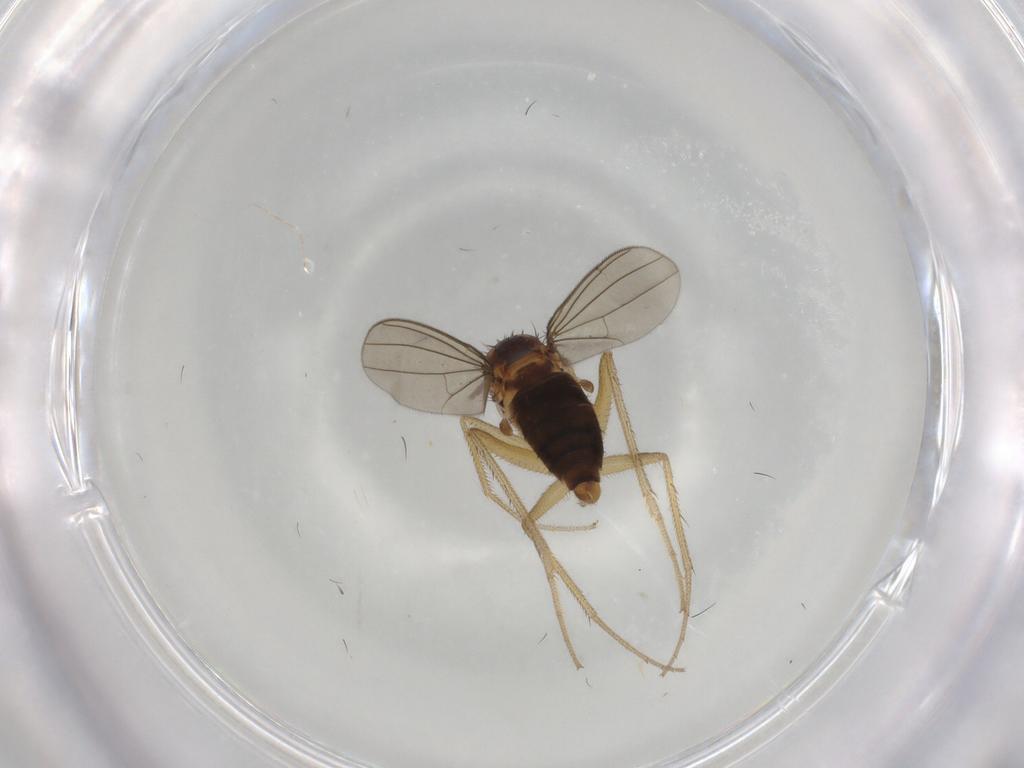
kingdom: Animalia
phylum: Arthropoda
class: Insecta
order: Diptera
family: Dolichopodidae
